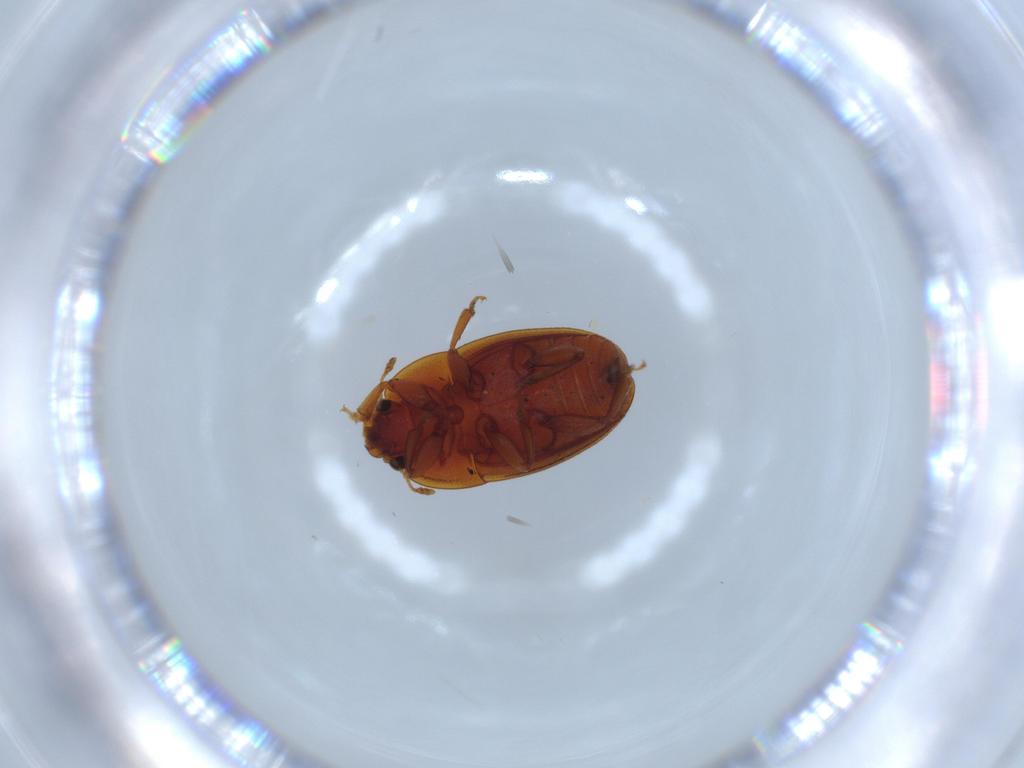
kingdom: Animalia
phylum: Arthropoda
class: Insecta
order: Coleoptera
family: Nitidulidae
